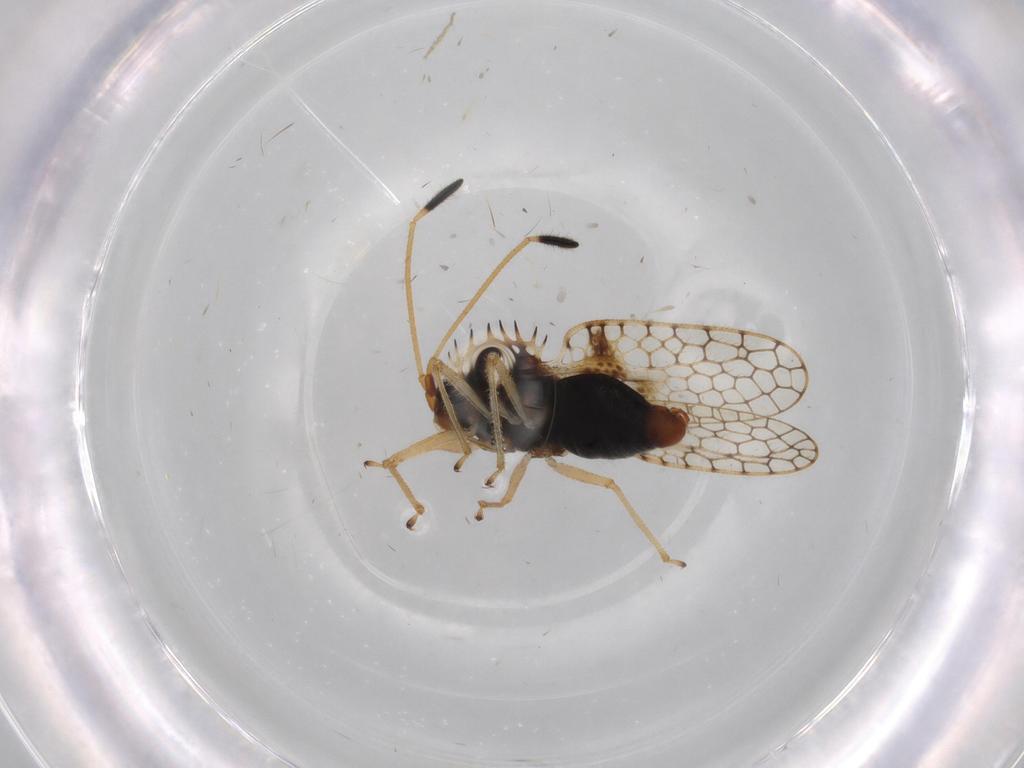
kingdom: Animalia
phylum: Arthropoda
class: Insecta
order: Hemiptera
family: Tingidae
